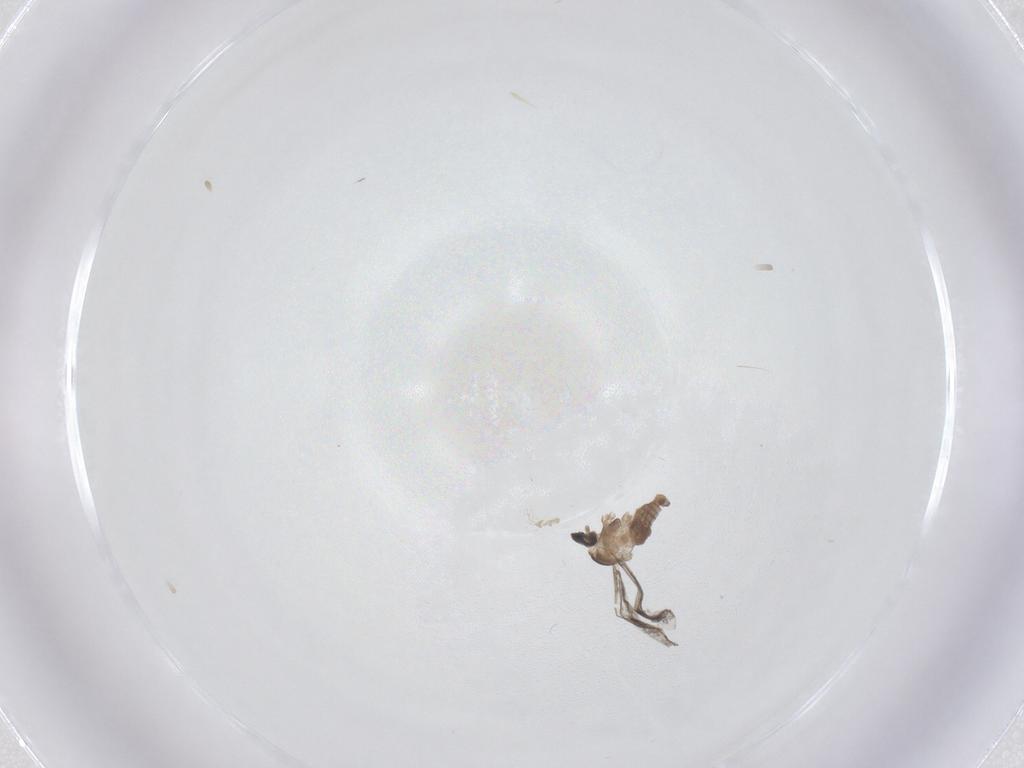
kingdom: Animalia
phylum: Arthropoda
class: Insecta
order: Diptera
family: Cecidomyiidae
